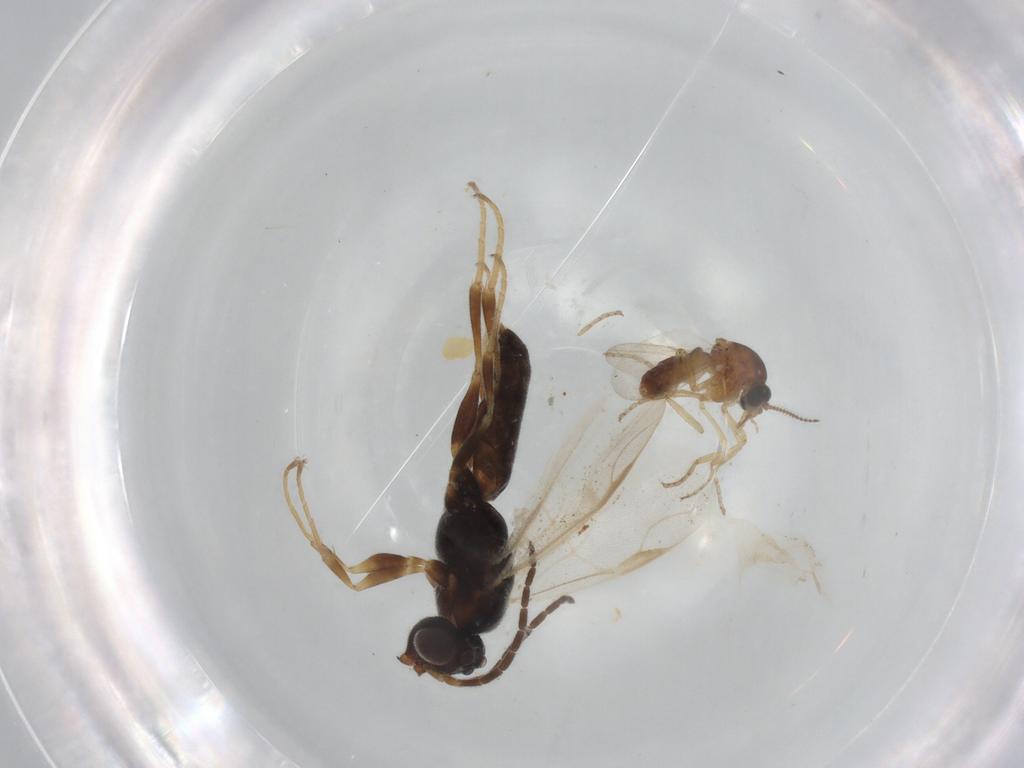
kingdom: Animalia
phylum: Arthropoda
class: Insecta
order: Diptera
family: Ceratopogonidae
